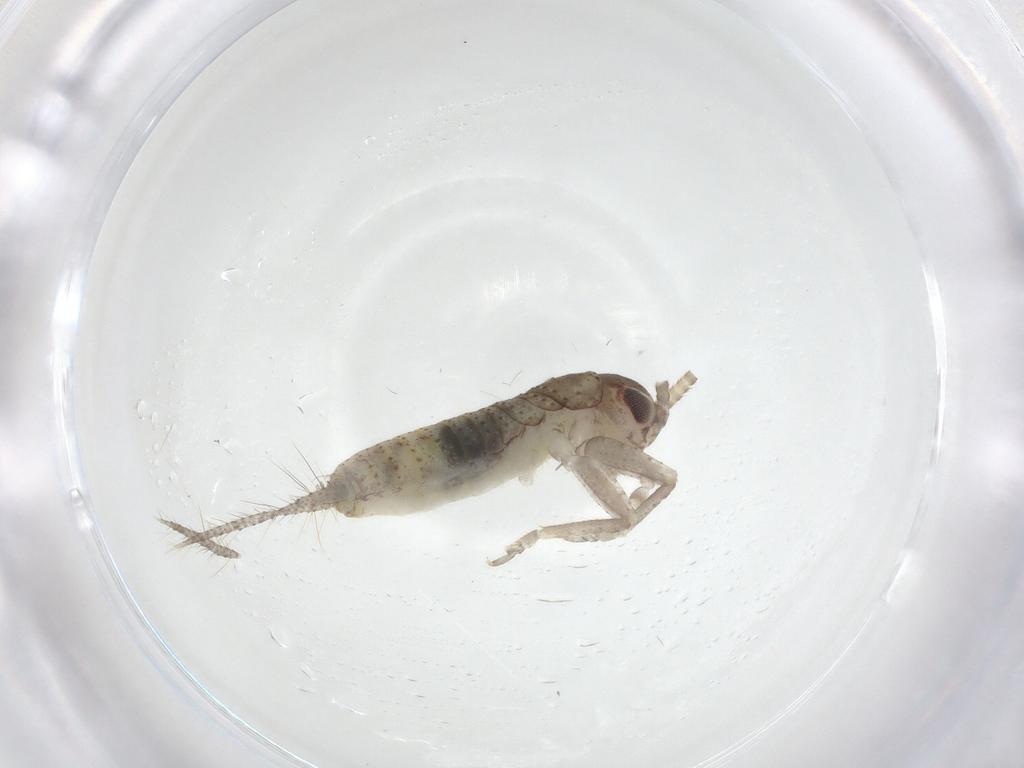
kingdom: Animalia
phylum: Arthropoda
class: Insecta
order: Orthoptera
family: Gryllidae
